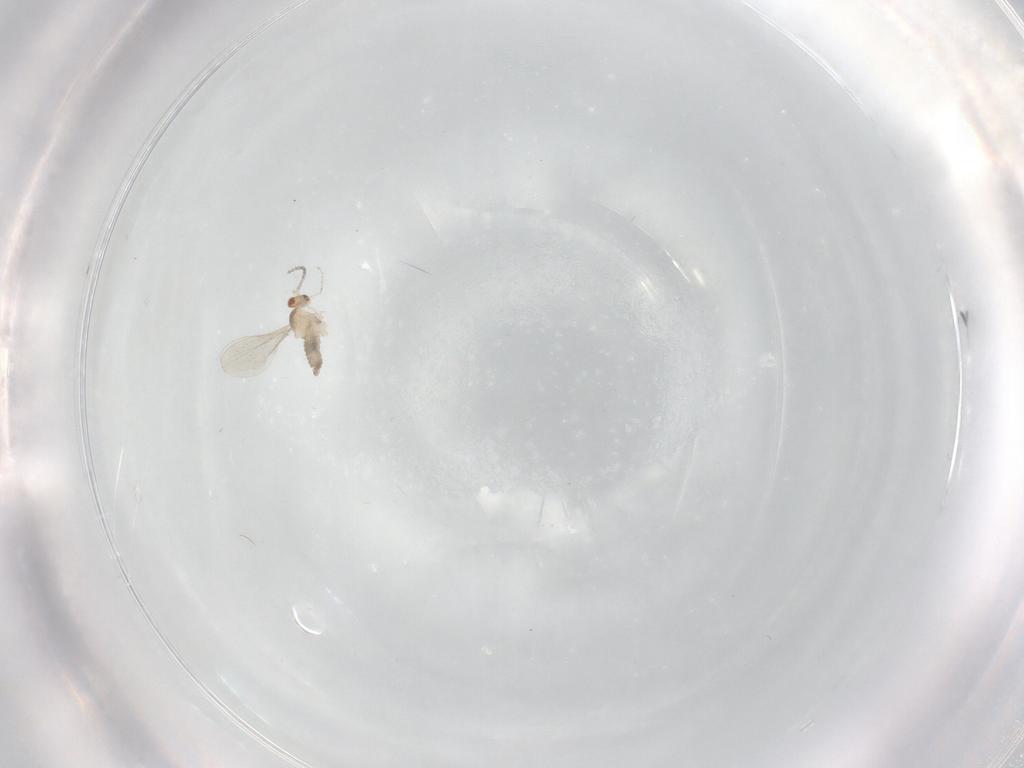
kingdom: Animalia
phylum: Arthropoda
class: Insecta
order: Diptera
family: Cecidomyiidae
